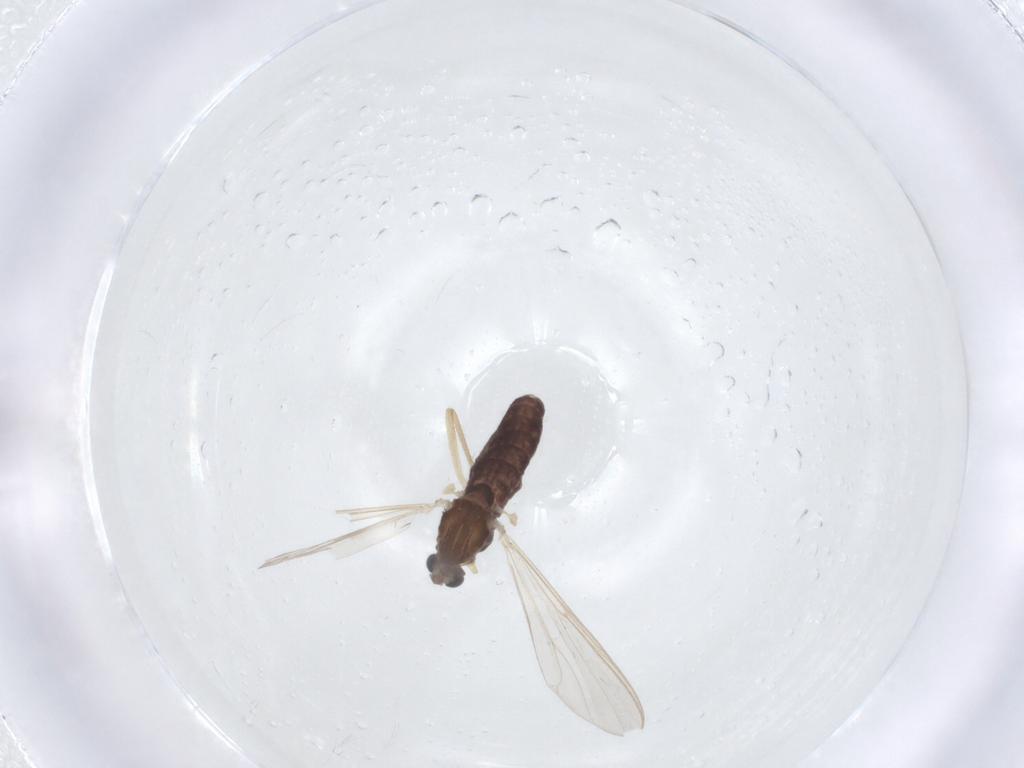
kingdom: Animalia
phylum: Arthropoda
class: Insecta
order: Diptera
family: Chironomidae
